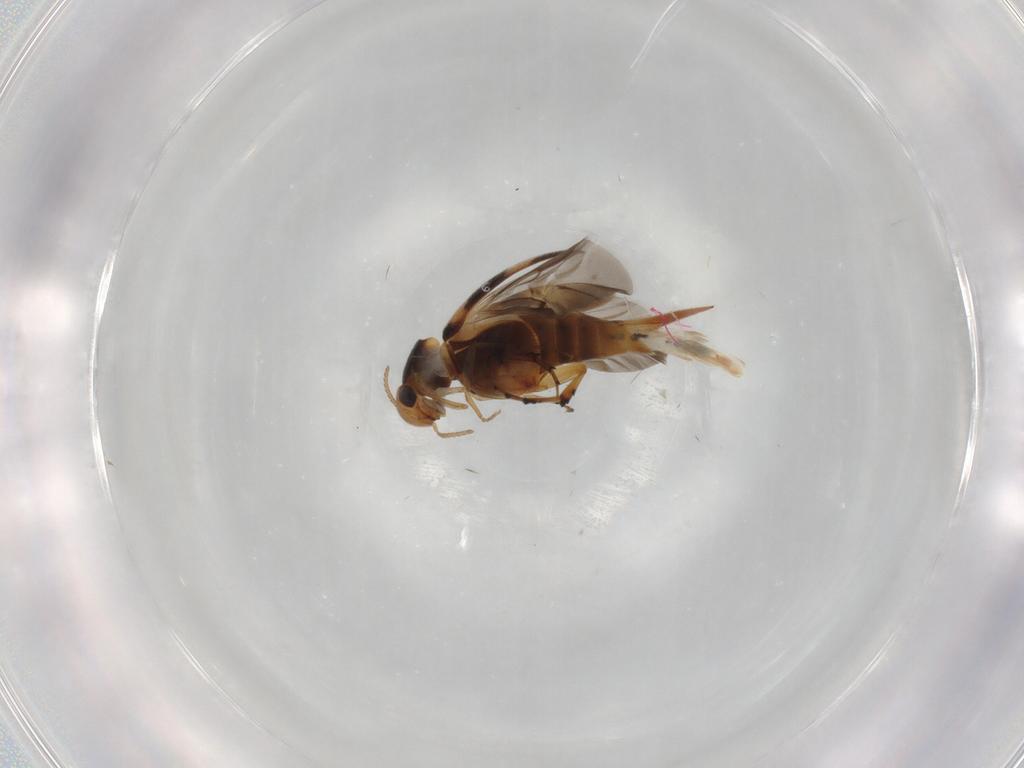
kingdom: Animalia
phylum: Arthropoda
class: Insecta
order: Coleoptera
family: Mordellidae
